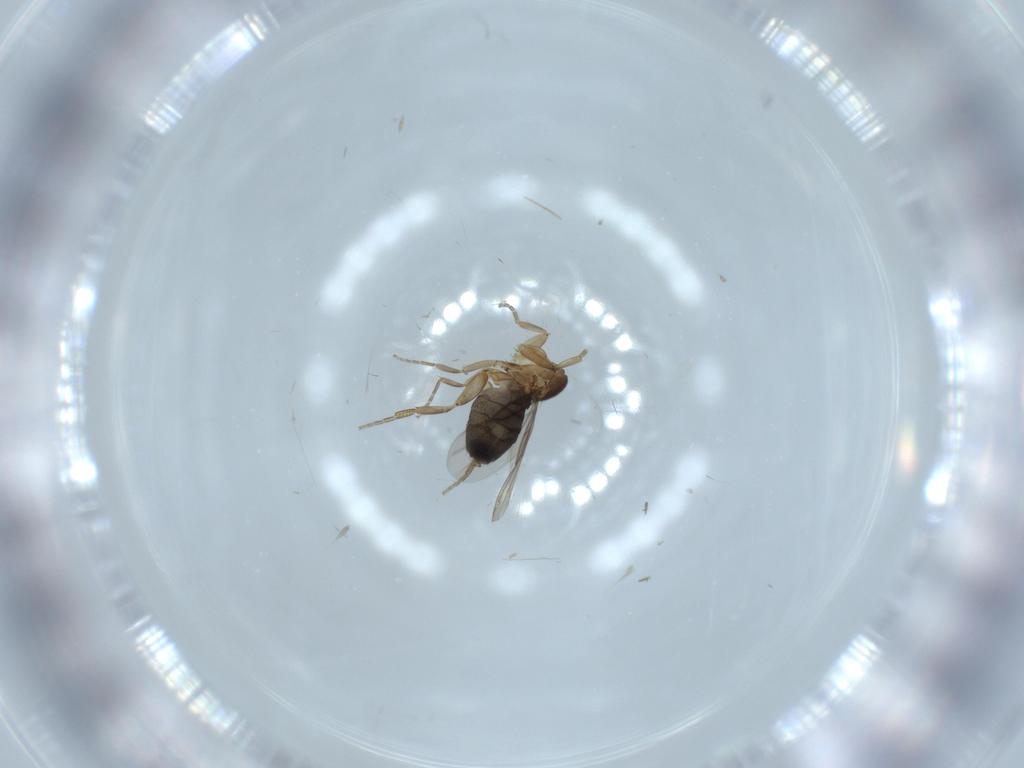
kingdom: Animalia
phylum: Arthropoda
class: Insecta
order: Diptera
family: Phoridae
